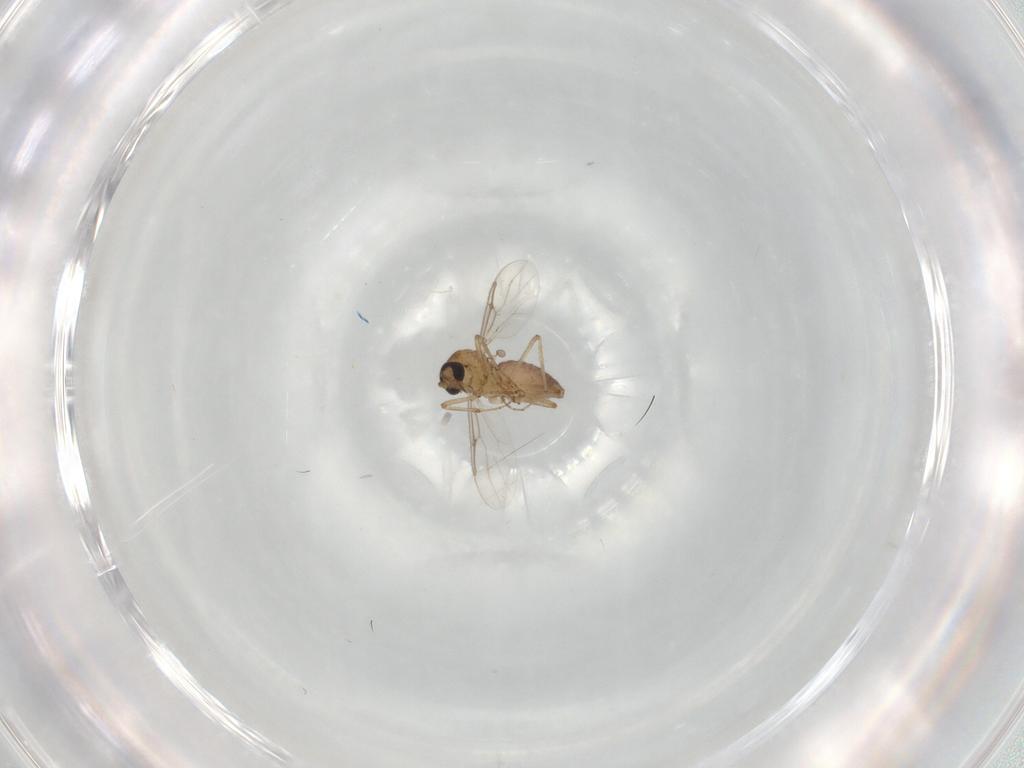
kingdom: Animalia
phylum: Arthropoda
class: Insecta
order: Diptera
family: Ceratopogonidae
